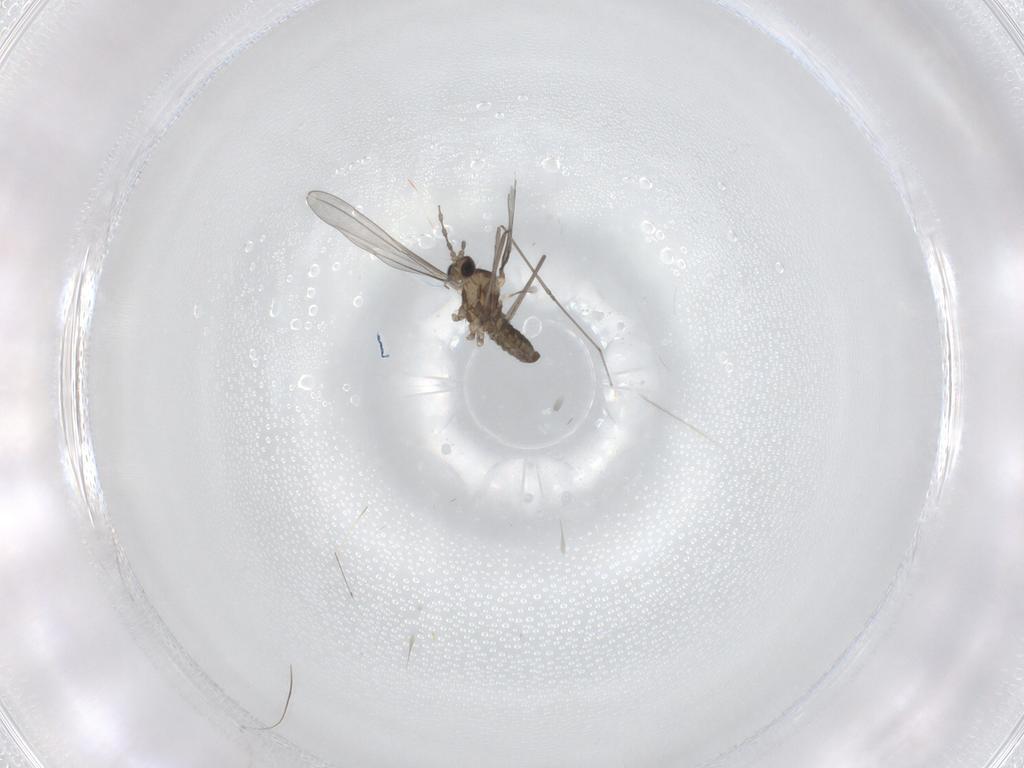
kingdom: Animalia
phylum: Arthropoda
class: Insecta
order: Diptera
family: Cecidomyiidae
